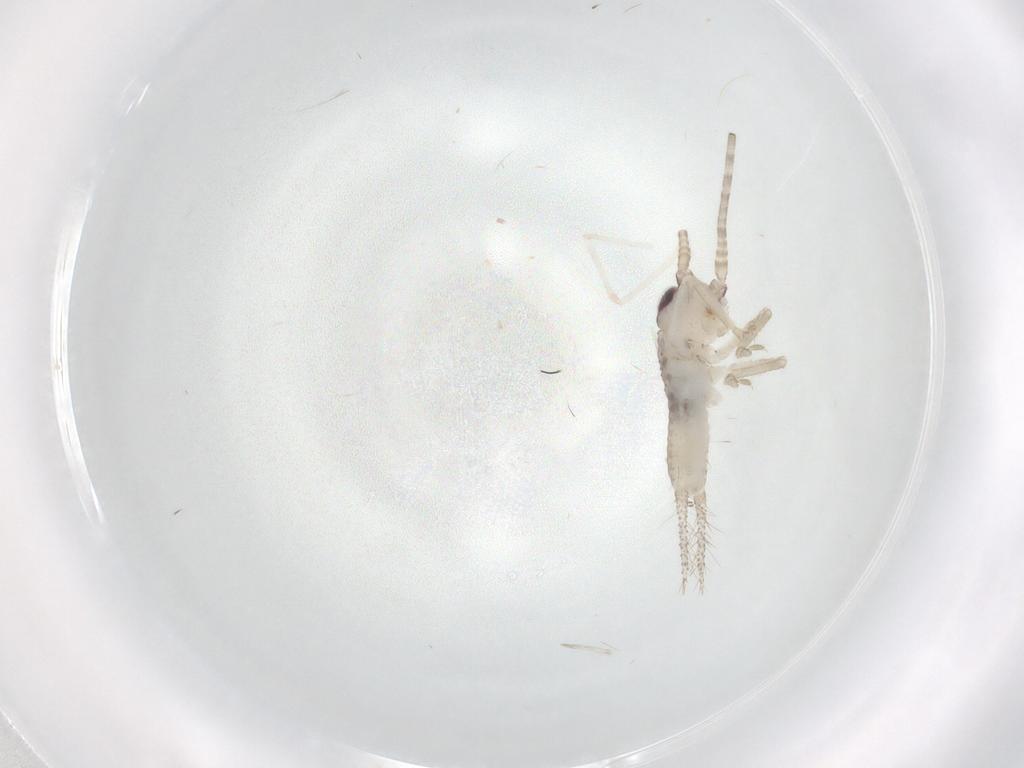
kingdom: Animalia
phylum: Arthropoda
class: Insecta
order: Orthoptera
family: Gryllidae
